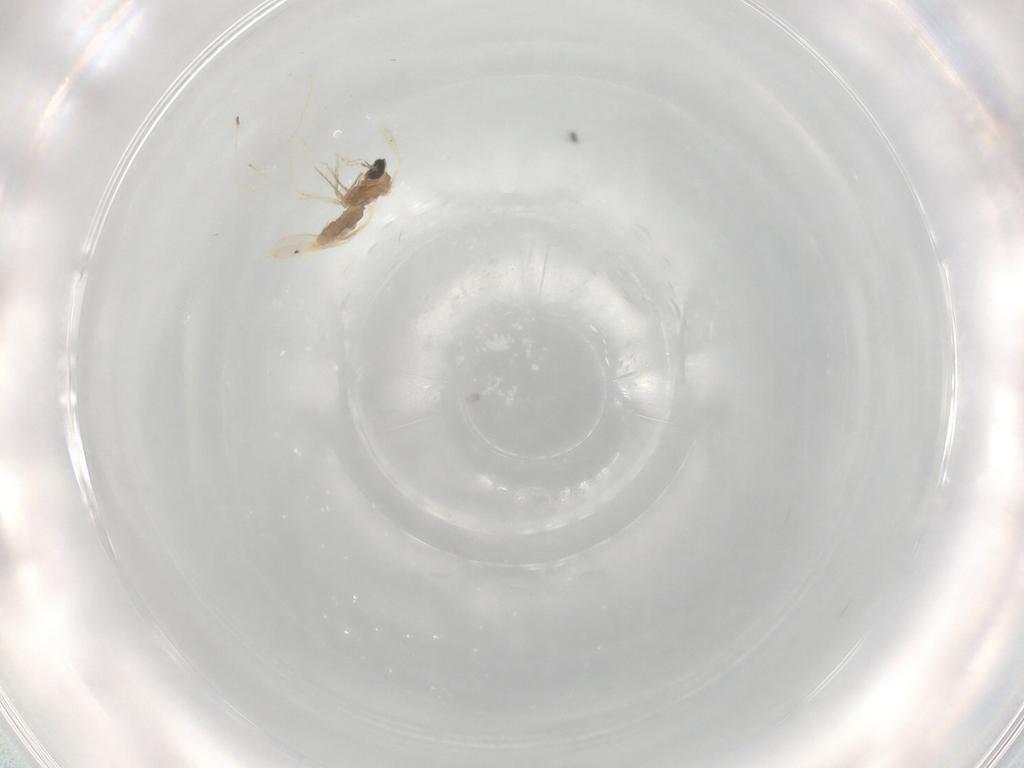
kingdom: Animalia
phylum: Arthropoda
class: Insecta
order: Diptera
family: Cecidomyiidae
